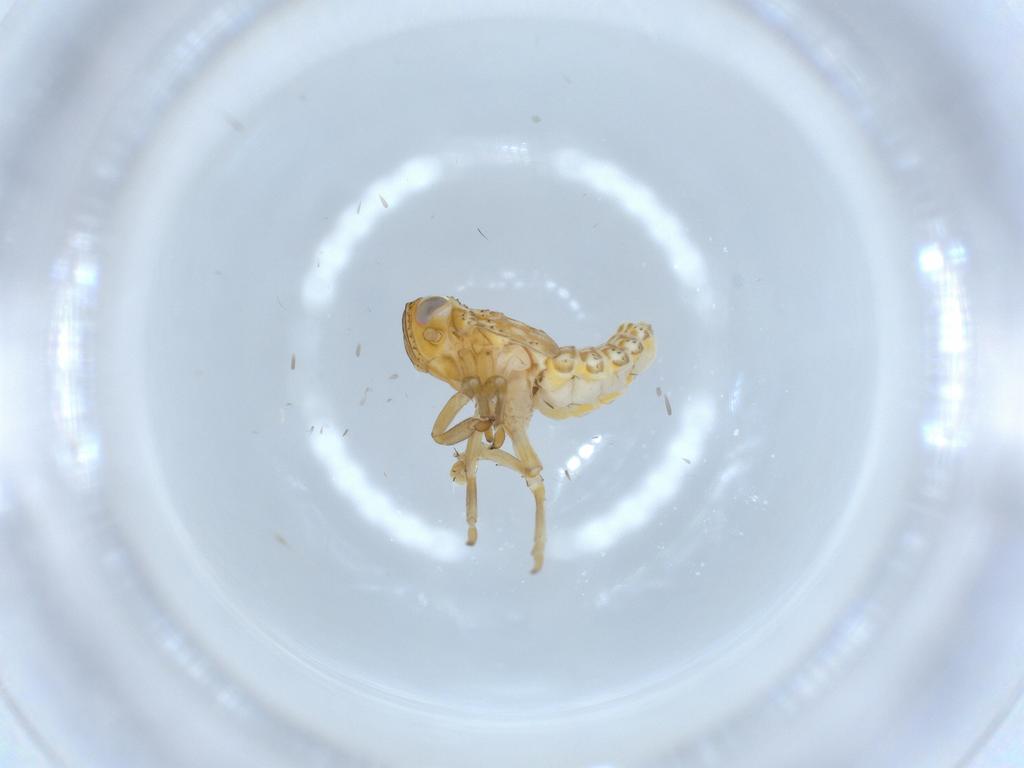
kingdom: Animalia
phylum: Arthropoda
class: Insecta
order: Hemiptera
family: Issidae
